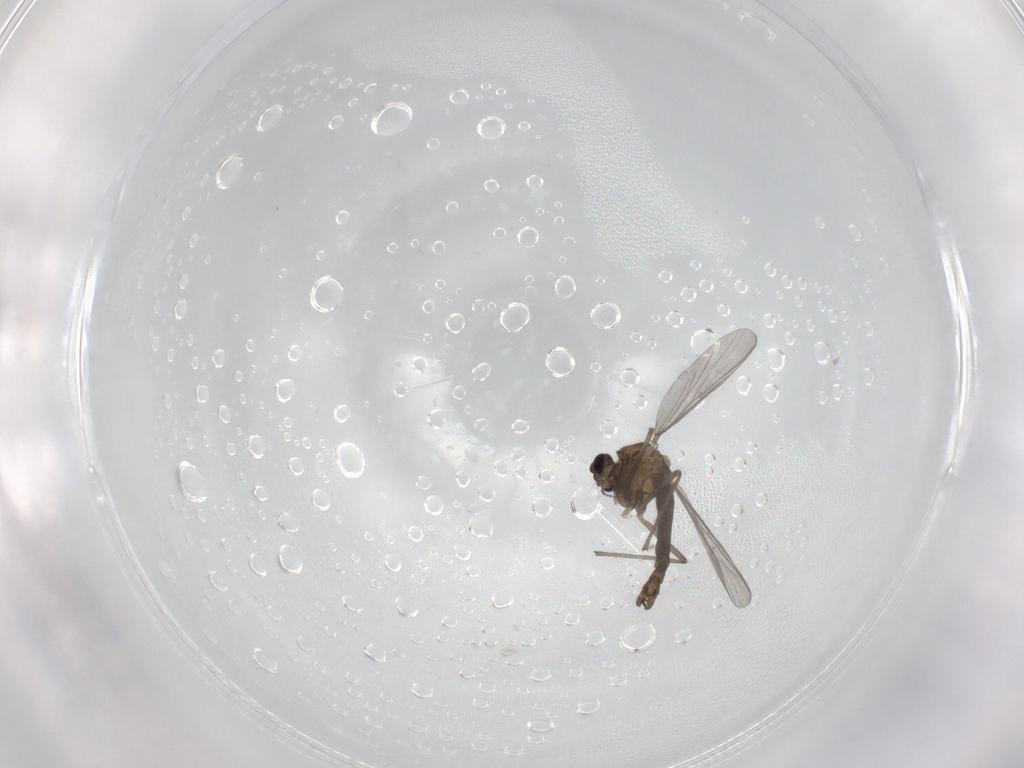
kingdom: Animalia
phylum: Arthropoda
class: Insecta
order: Diptera
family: Chironomidae
